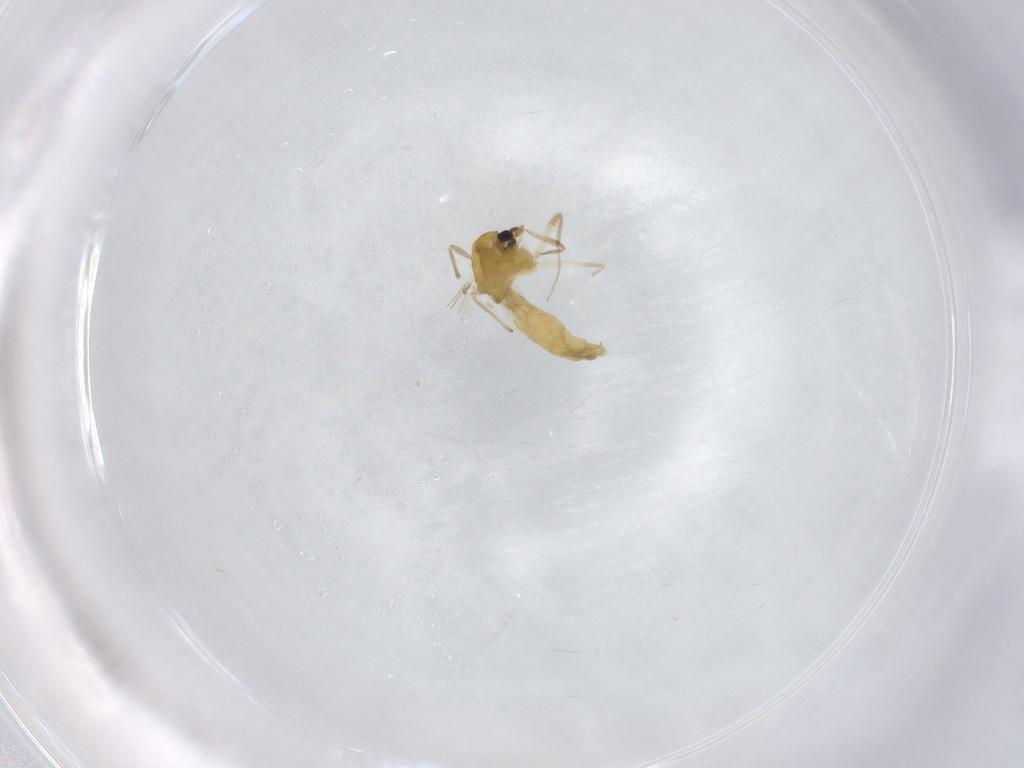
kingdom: Animalia
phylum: Arthropoda
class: Insecta
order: Diptera
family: Chironomidae
